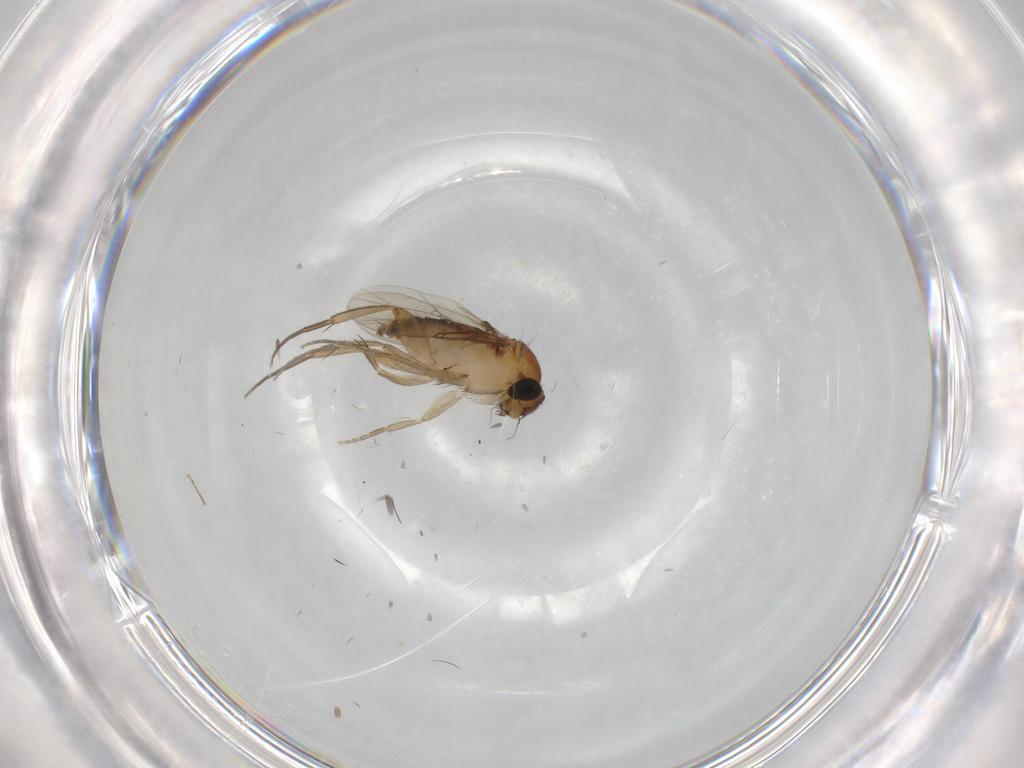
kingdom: Animalia
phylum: Arthropoda
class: Insecta
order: Diptera
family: Phoridae
